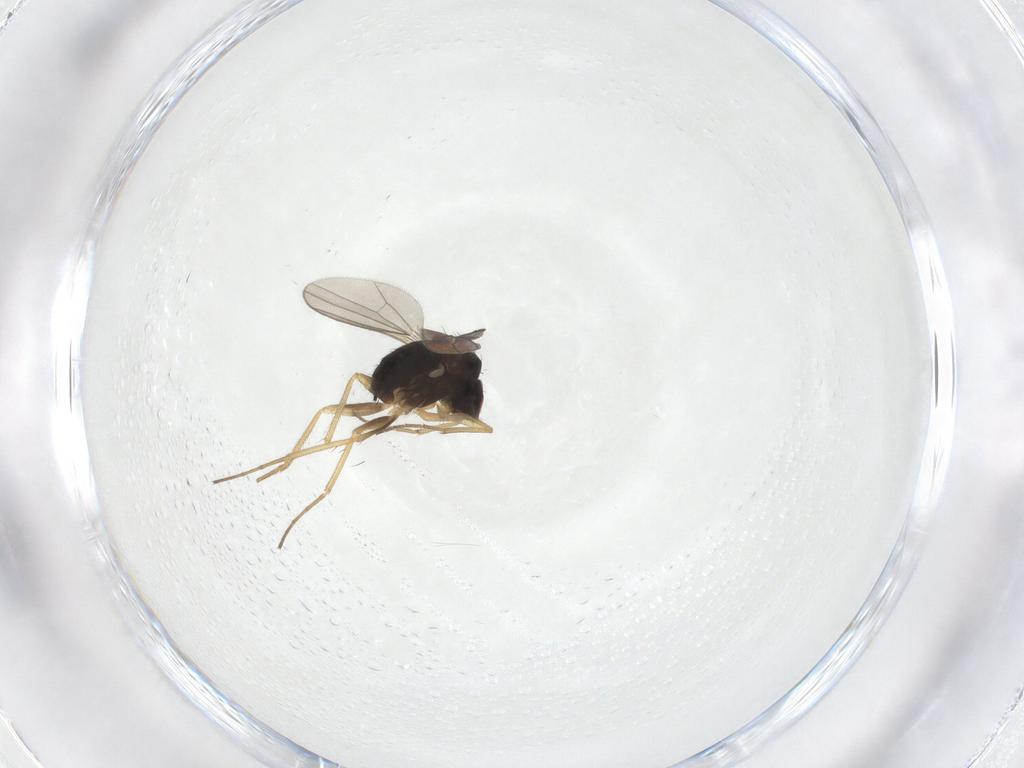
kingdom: Animalia
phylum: Arthropoda
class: Insecta
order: Diptera
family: Dolichopodidae
